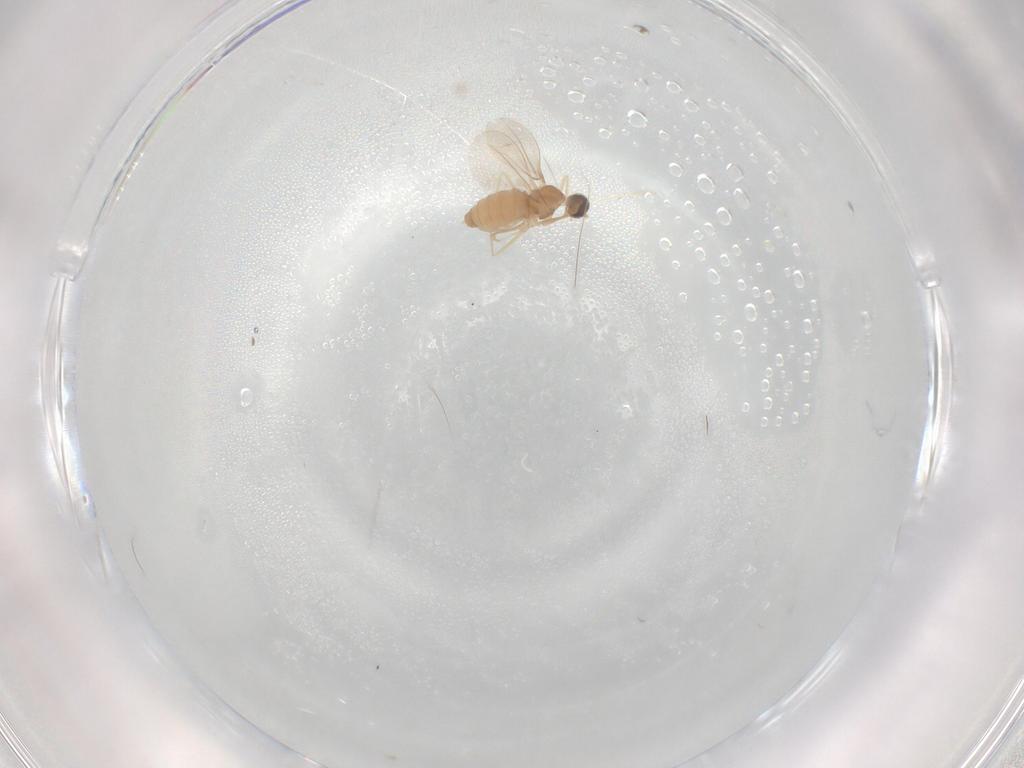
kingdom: Animalia
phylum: Arthropoda
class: Insecta
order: Diptera
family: Cecidomyiidae
